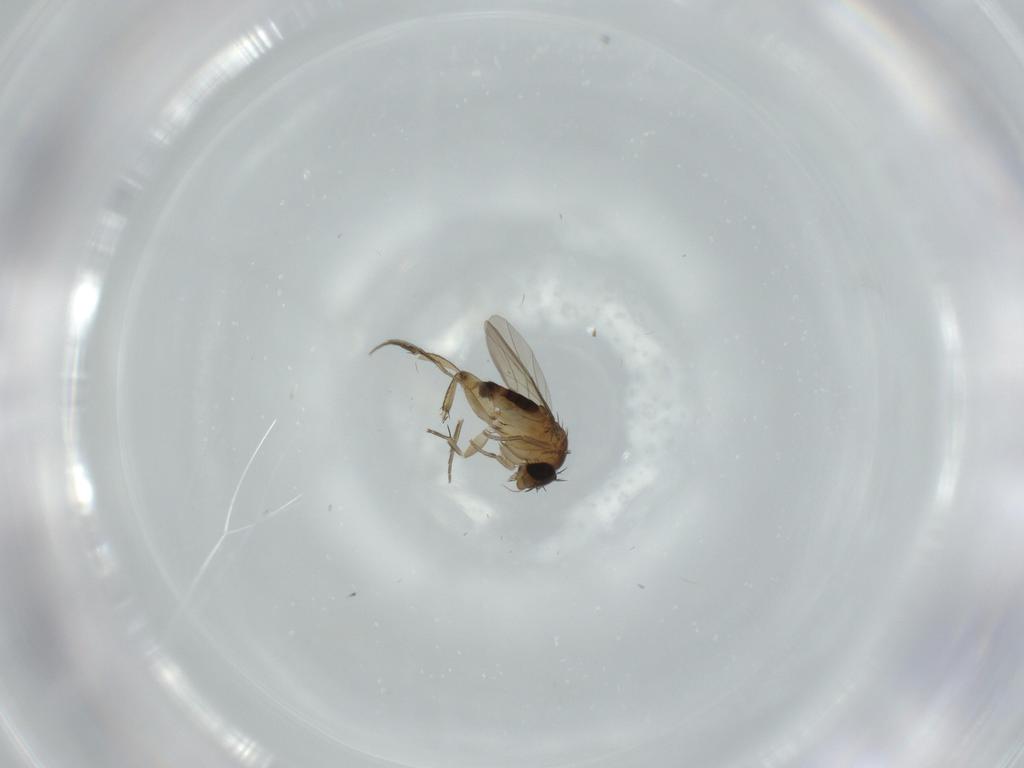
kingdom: Animalia
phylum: Arthropoda
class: Insecta
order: Diptera
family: Phoridae
